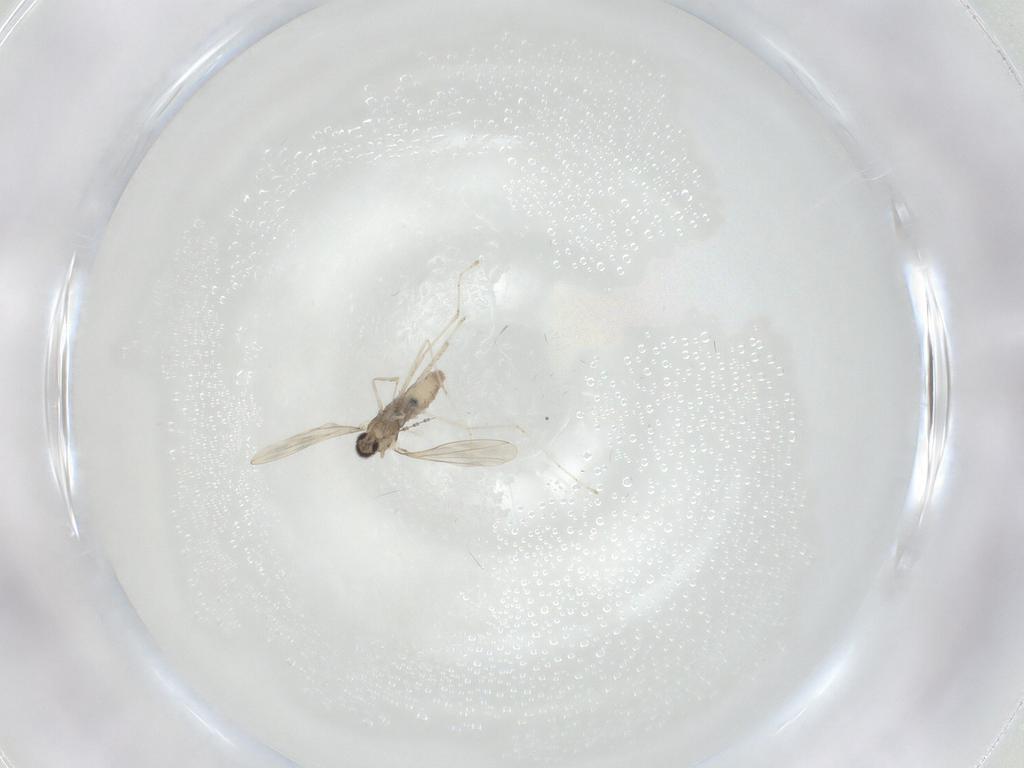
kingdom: Animalia
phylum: Arthropoda
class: Insecta
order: Diptera
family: Cecidomyiidae
